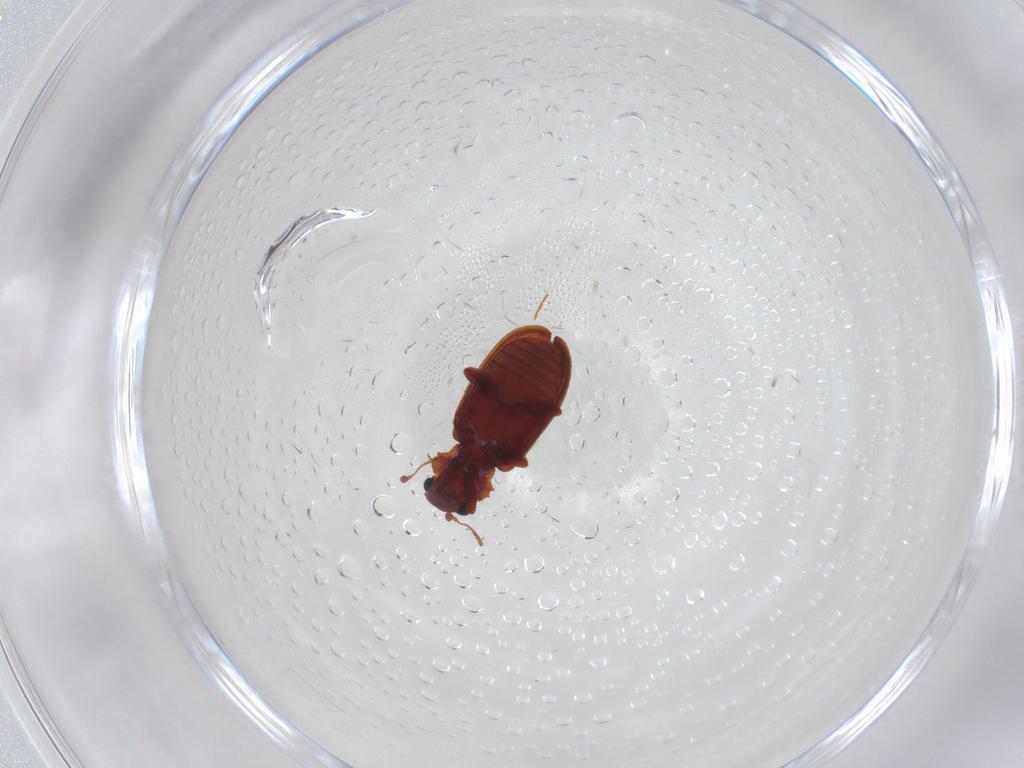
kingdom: Animalia
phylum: Arthropoda
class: Insecta
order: Coleoptera
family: Chrysomelidae
